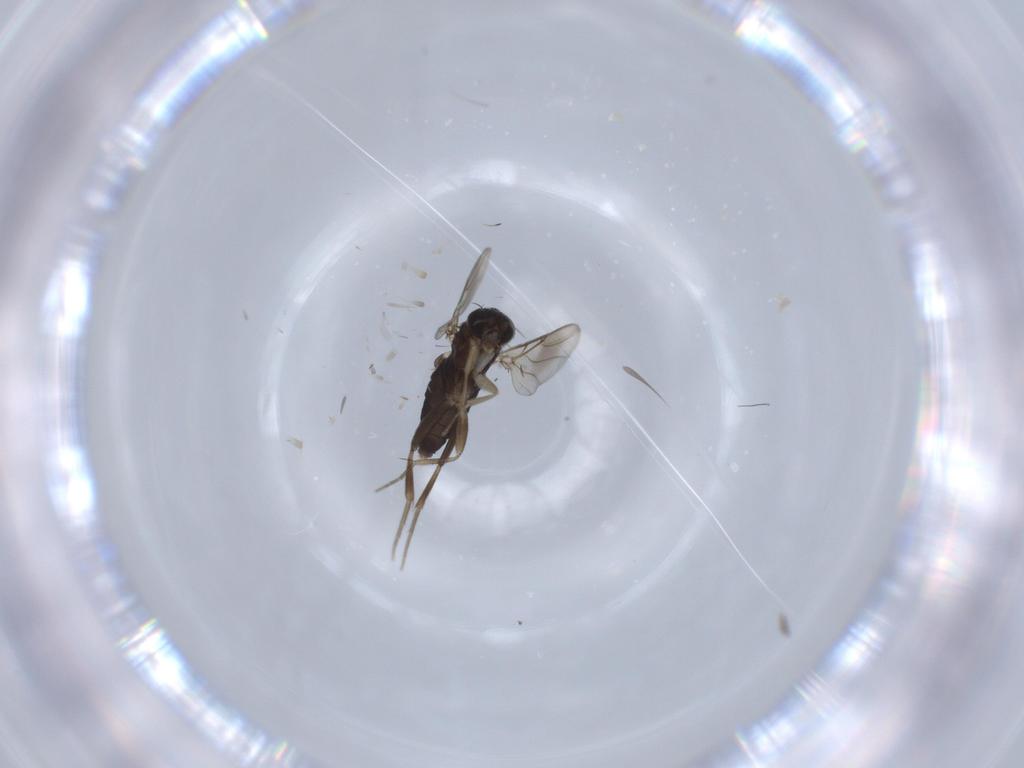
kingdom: Animalia
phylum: Arthropoda
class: Insecta
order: Diptera
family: Phoridae
